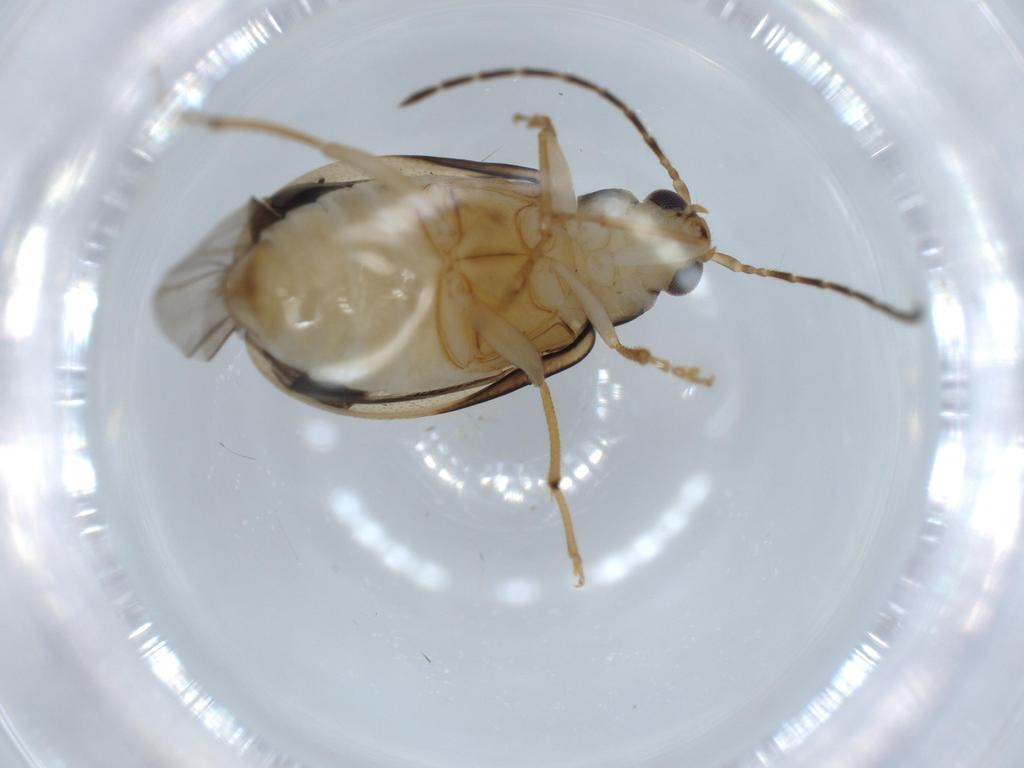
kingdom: Animalia
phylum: Arthropoda
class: Insecta
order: Coleoptera
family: Chrysomelidae
